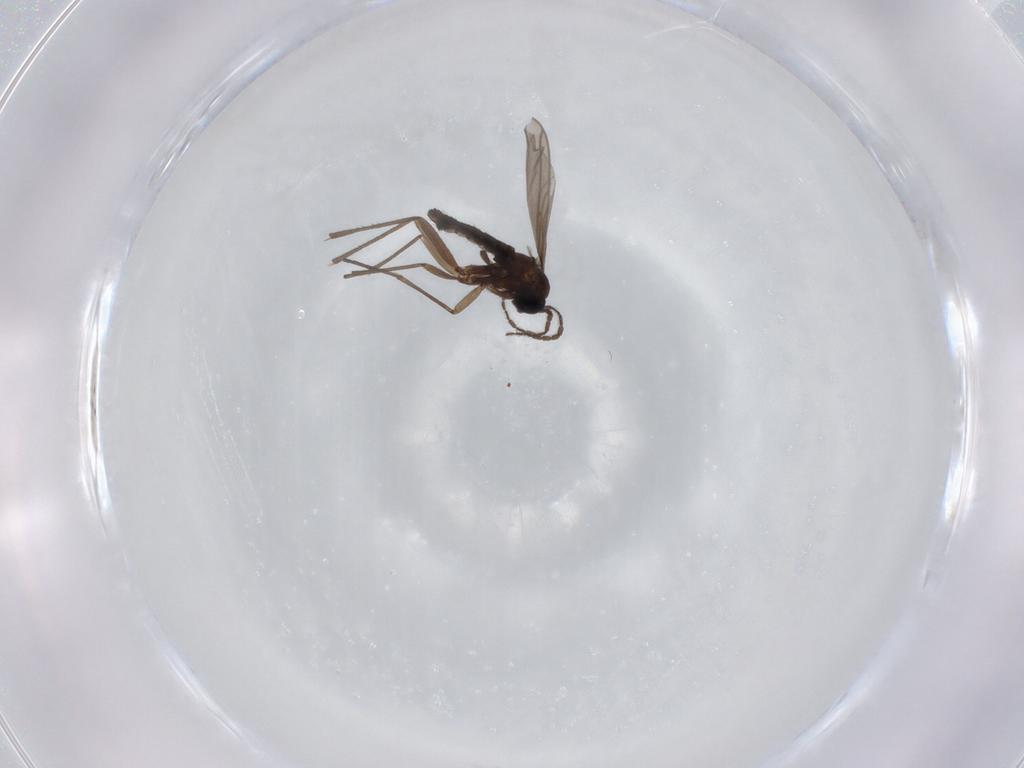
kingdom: Animalia
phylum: Arthropoda
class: Insecta
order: Diptera
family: Sciaridae
